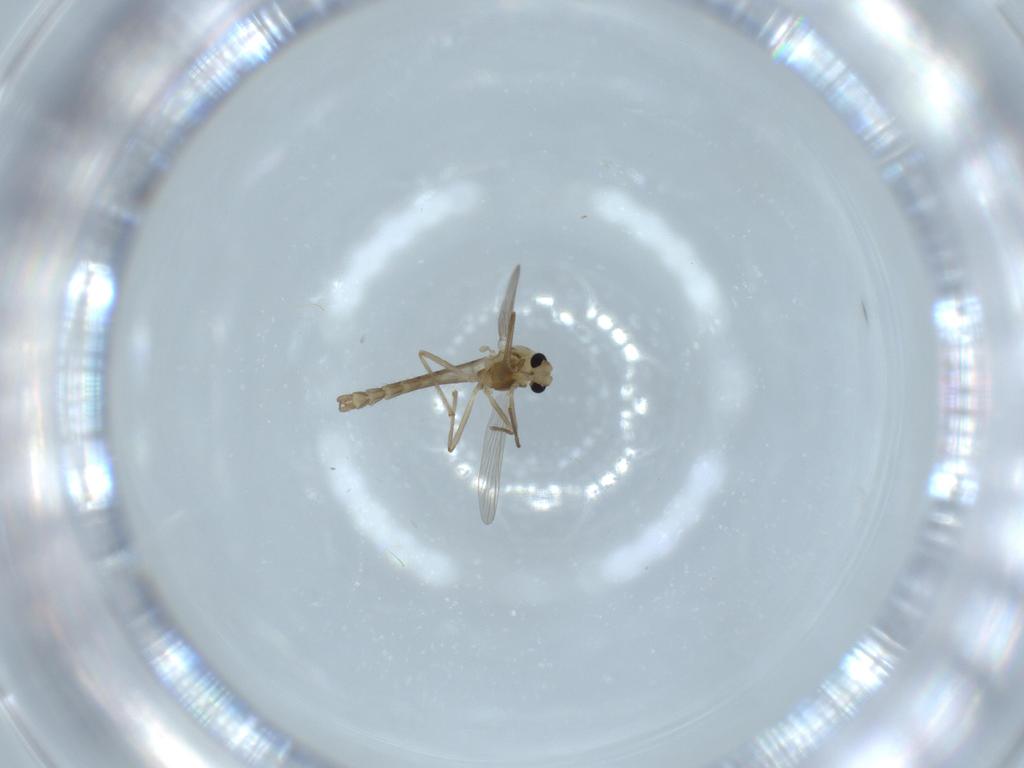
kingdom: Animalia
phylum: Arthropoda
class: Insecta
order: Diptera
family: Chironomidae
